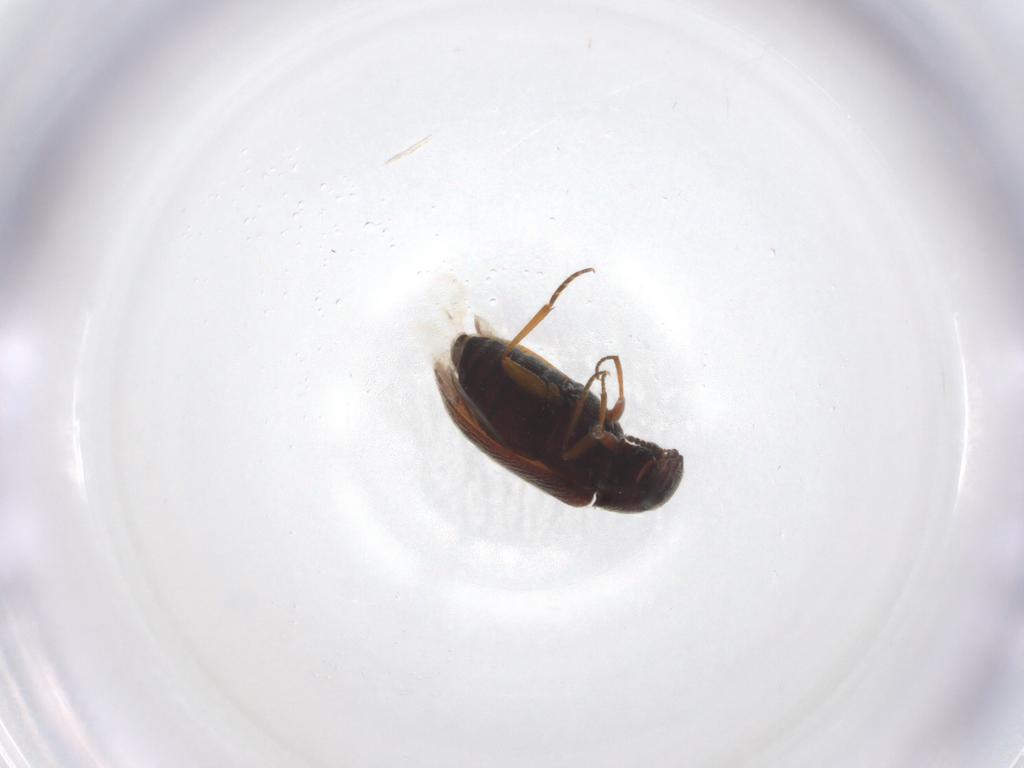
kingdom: Animalia
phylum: Arthropoda
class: Insecta
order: Coleoptera
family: Rhadalidae
